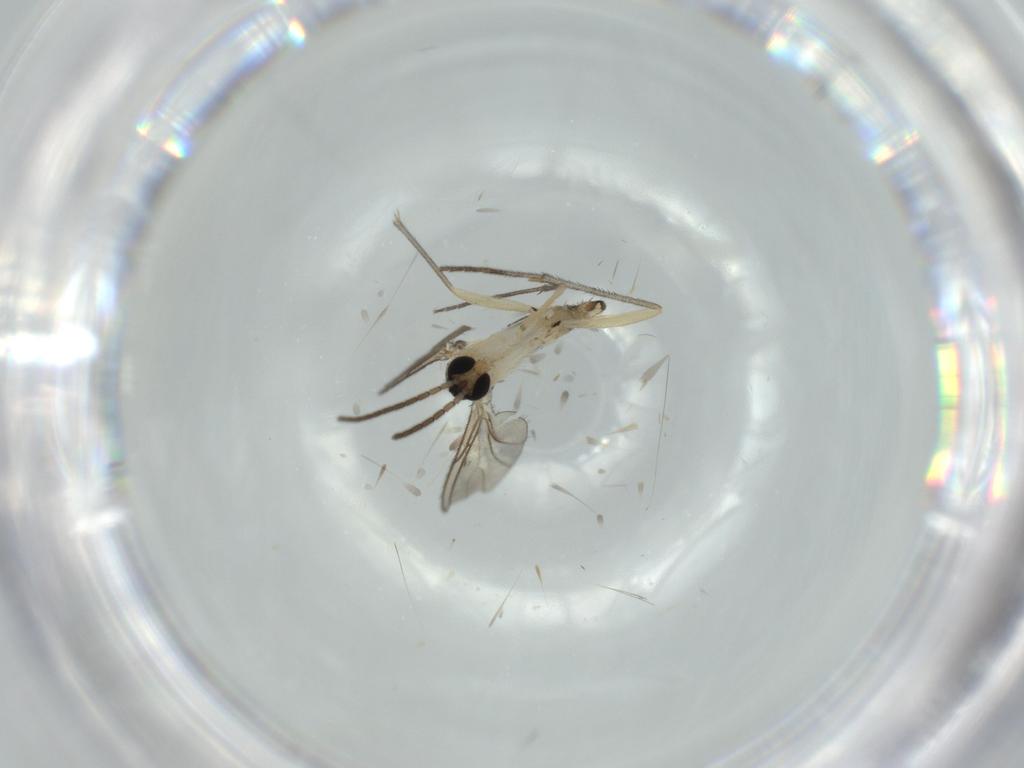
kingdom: Animalia
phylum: Arthropoda
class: Insecta
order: Diptera
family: Sciaridae
